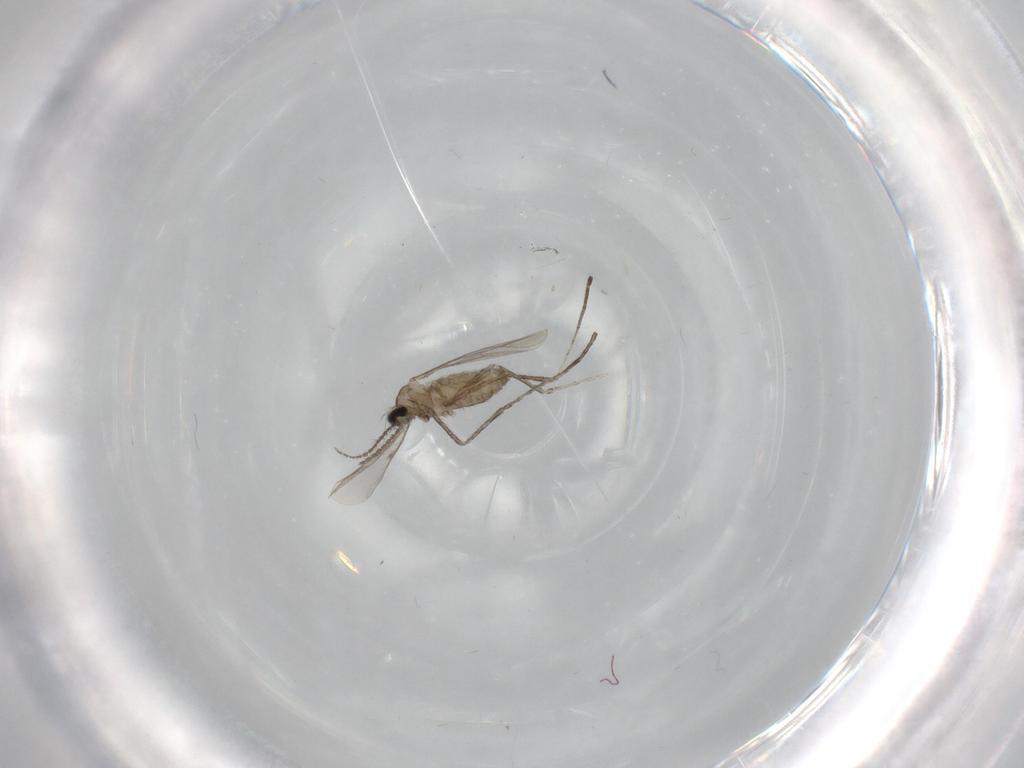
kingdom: Animalia
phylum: Arthropoda
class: Insecta
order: Diptera
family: Cecidomyiidae
